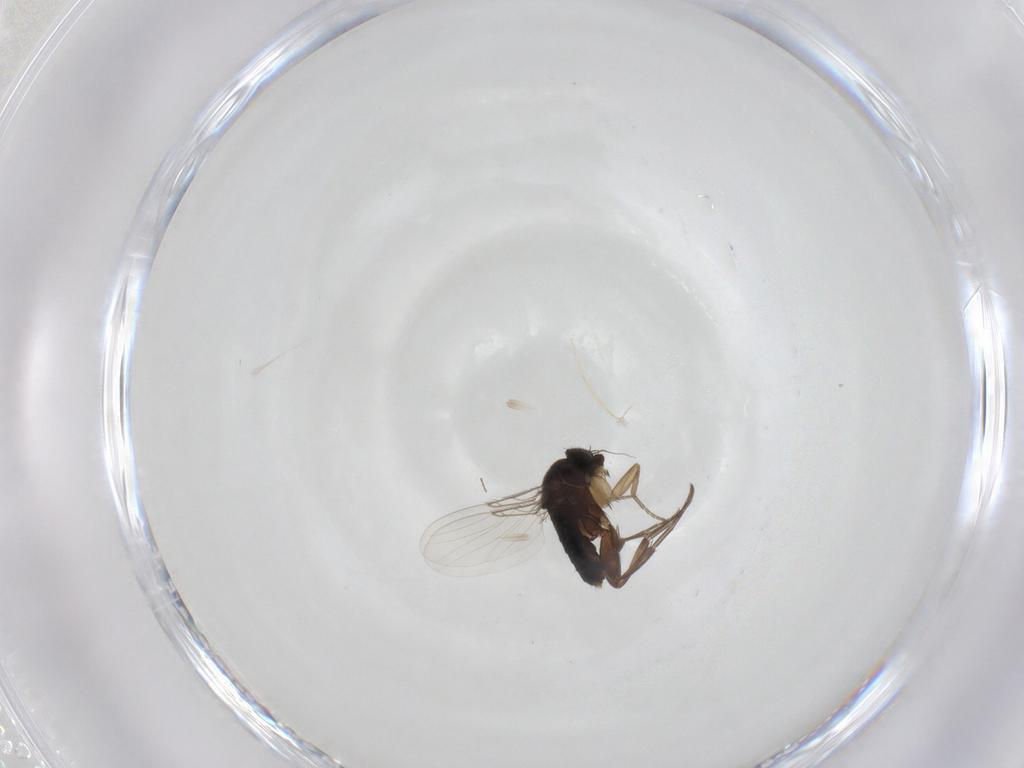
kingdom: Animalia
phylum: Arthropoda
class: Insecta
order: Diptera
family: Phoridae
